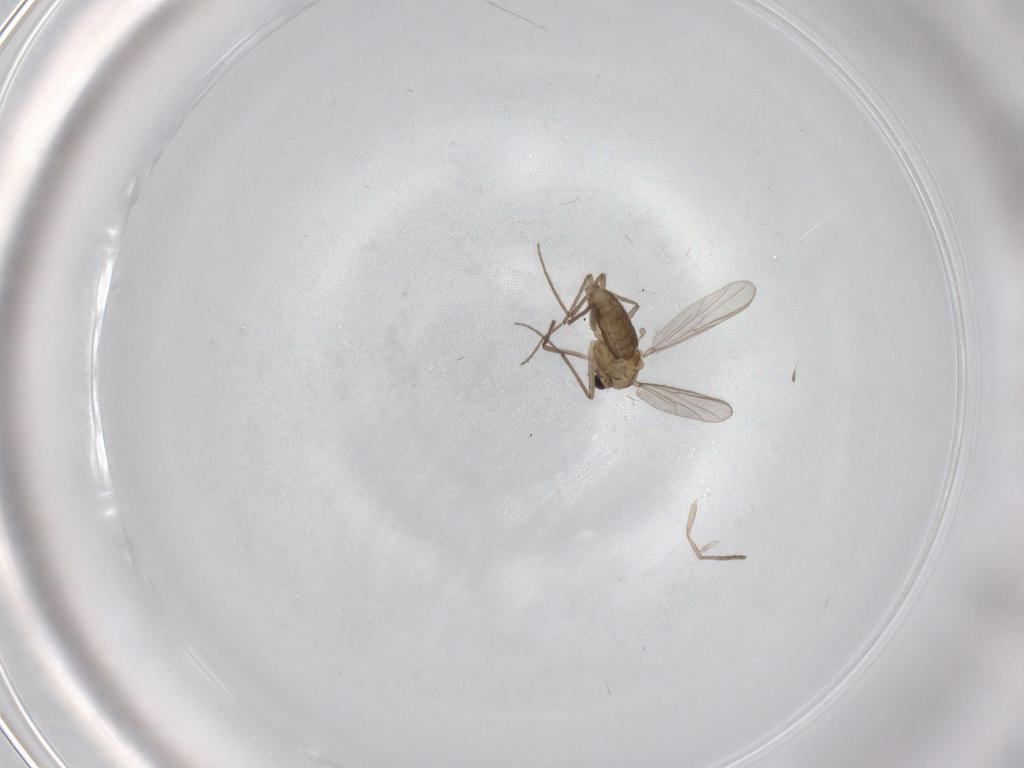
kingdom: Animalia
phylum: Arthropoda
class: Insecta
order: Diptera
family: Chironomidae
